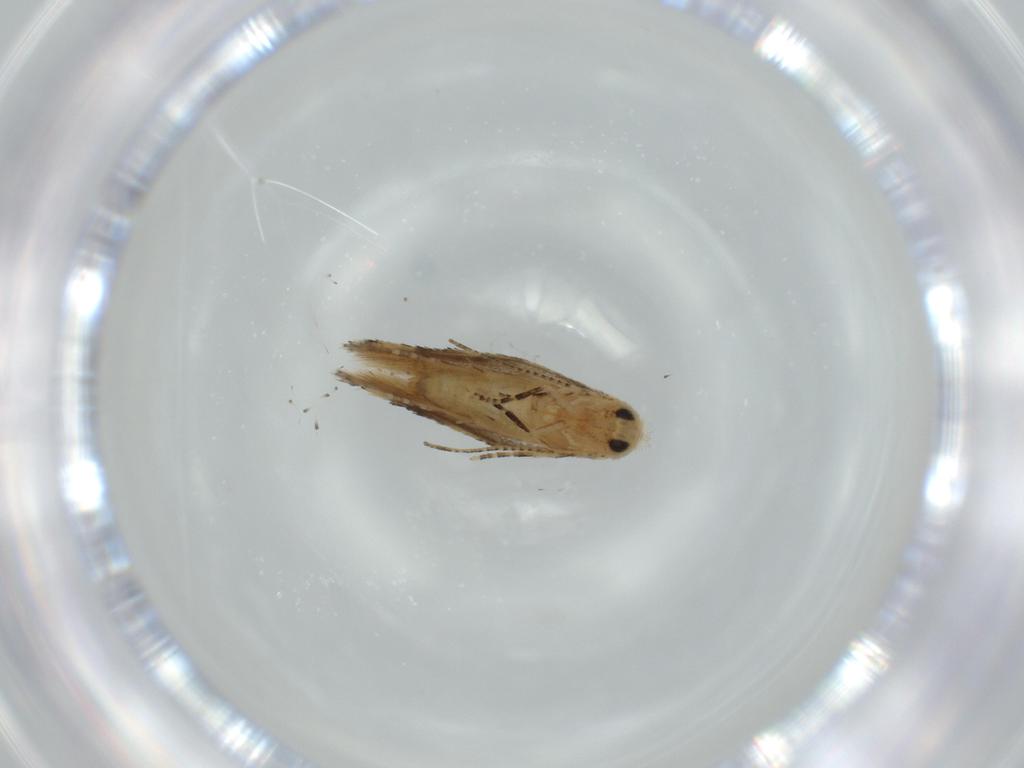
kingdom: Animalia
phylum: Arthropoda
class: Insecta
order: Lepidoptera
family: Bucculatricidae
